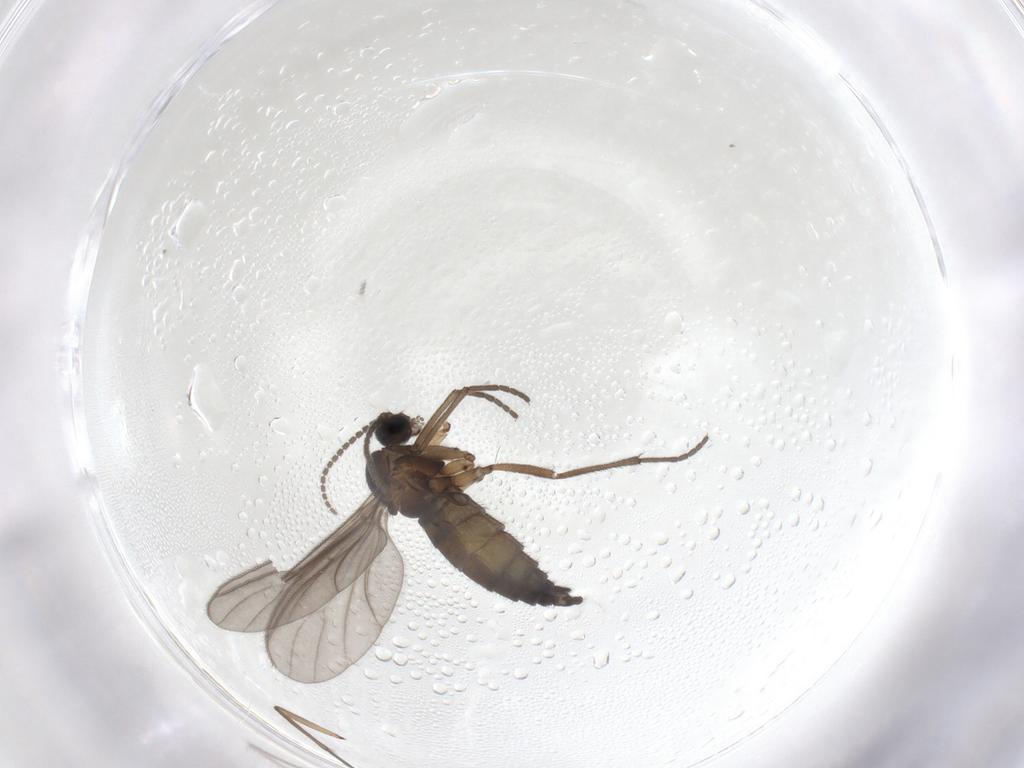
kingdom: Animalia
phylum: Arthropoda
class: Insecta
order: Diptera
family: Sciaridae
